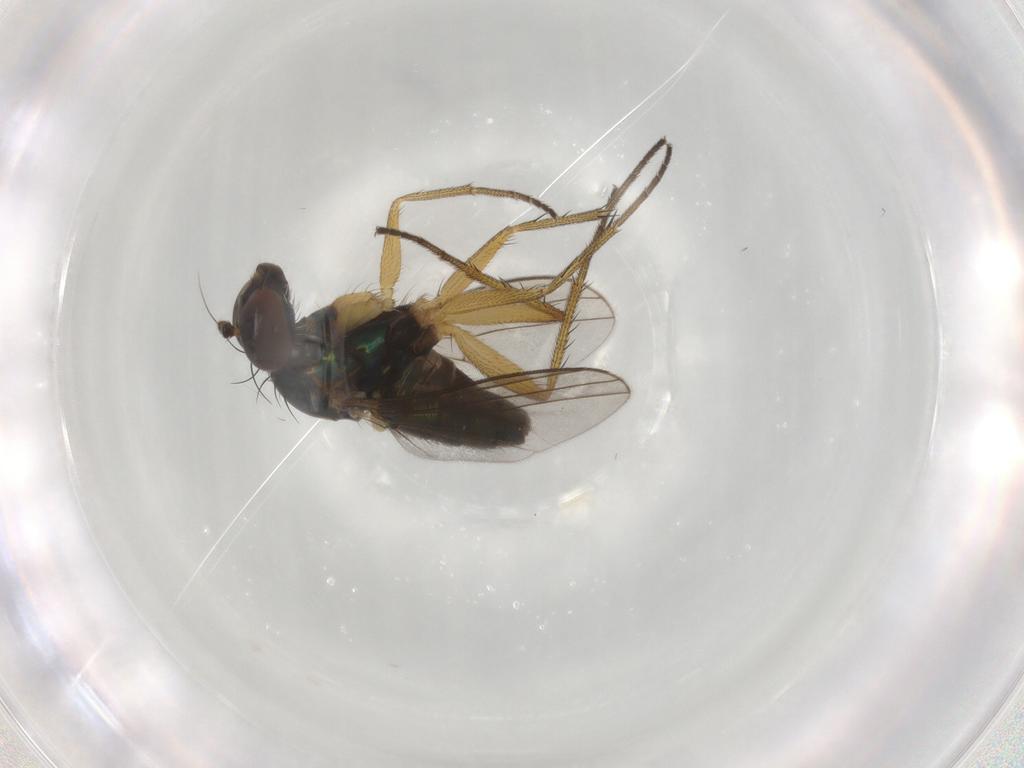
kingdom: Animalia
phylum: Arthropoda
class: Insecta
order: Diptera
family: Dolichopodidae
